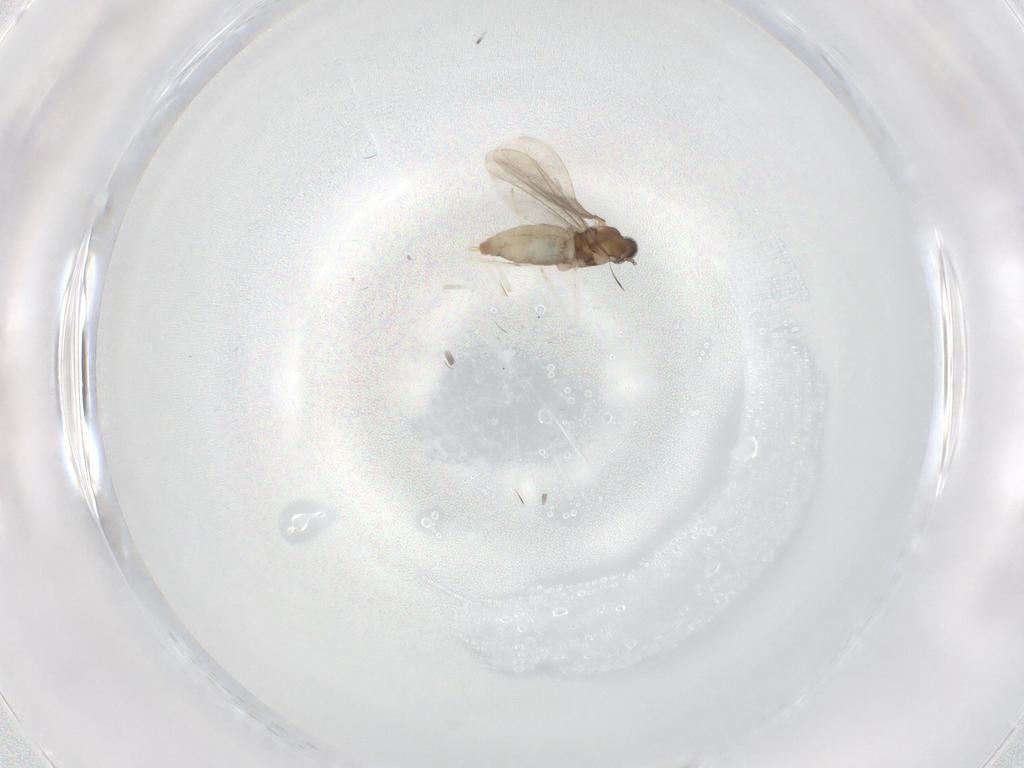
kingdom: Animalia
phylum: Arthropoda
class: Insecta
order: Diptera
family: Cecidomyiidae
